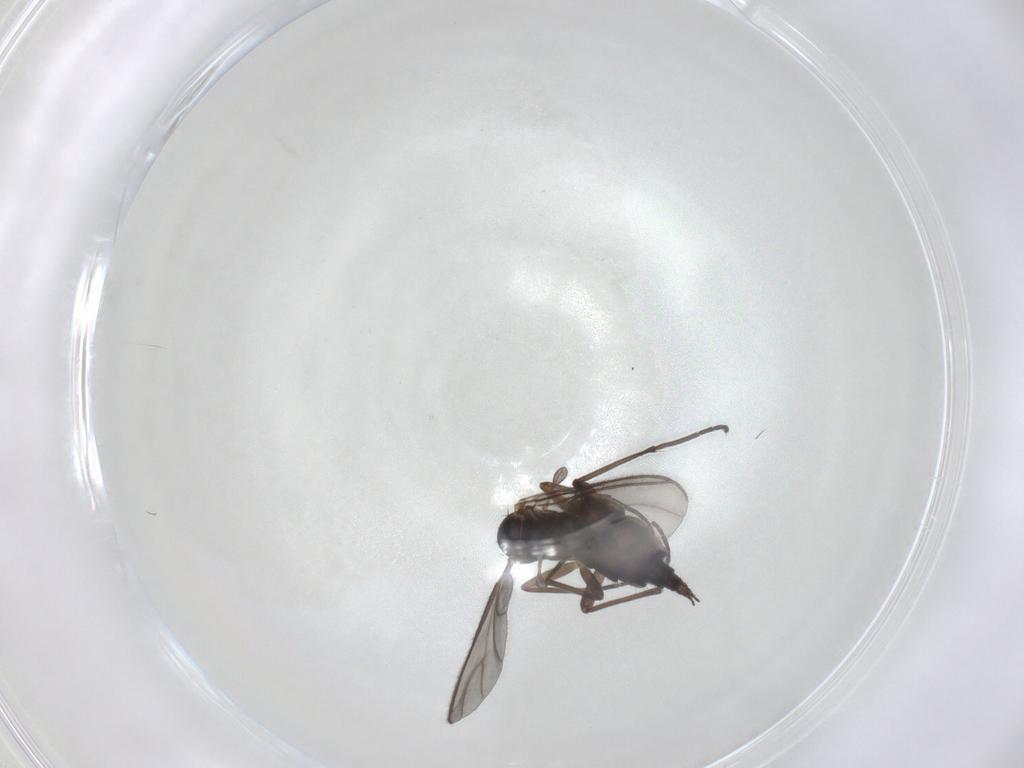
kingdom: Animalia
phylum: Arthropoda
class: Insecta
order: Diptera
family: Sciaridae
